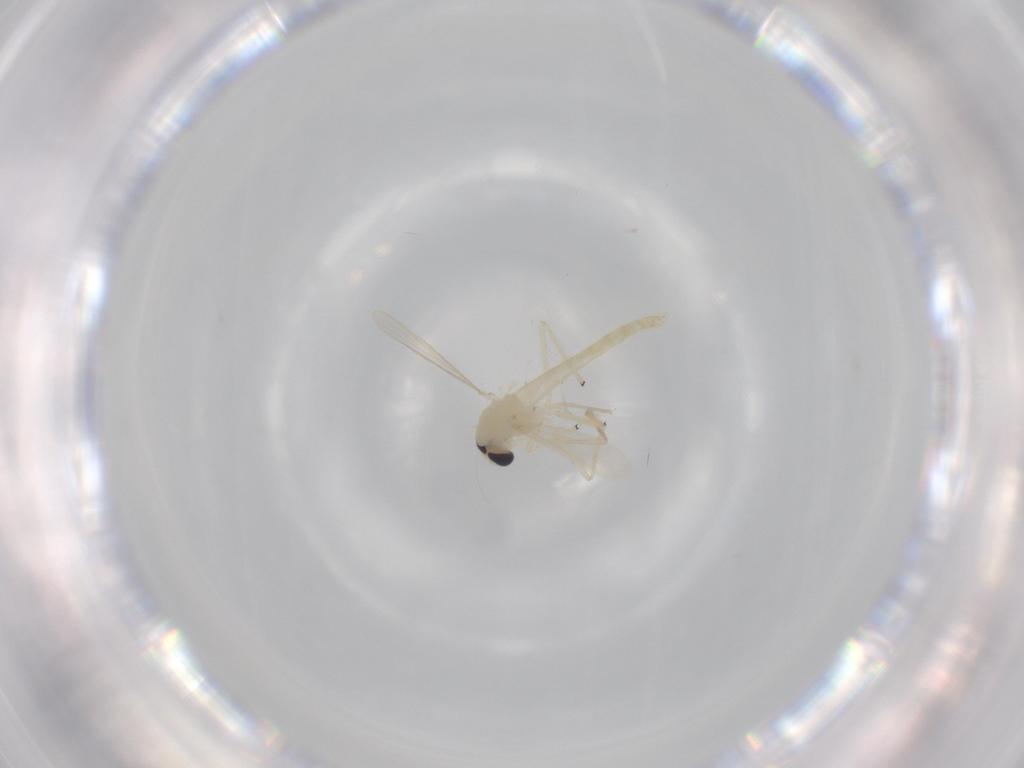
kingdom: Animalia
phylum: Arthropoda
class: Insecta
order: Diptera
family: Chironomidae
